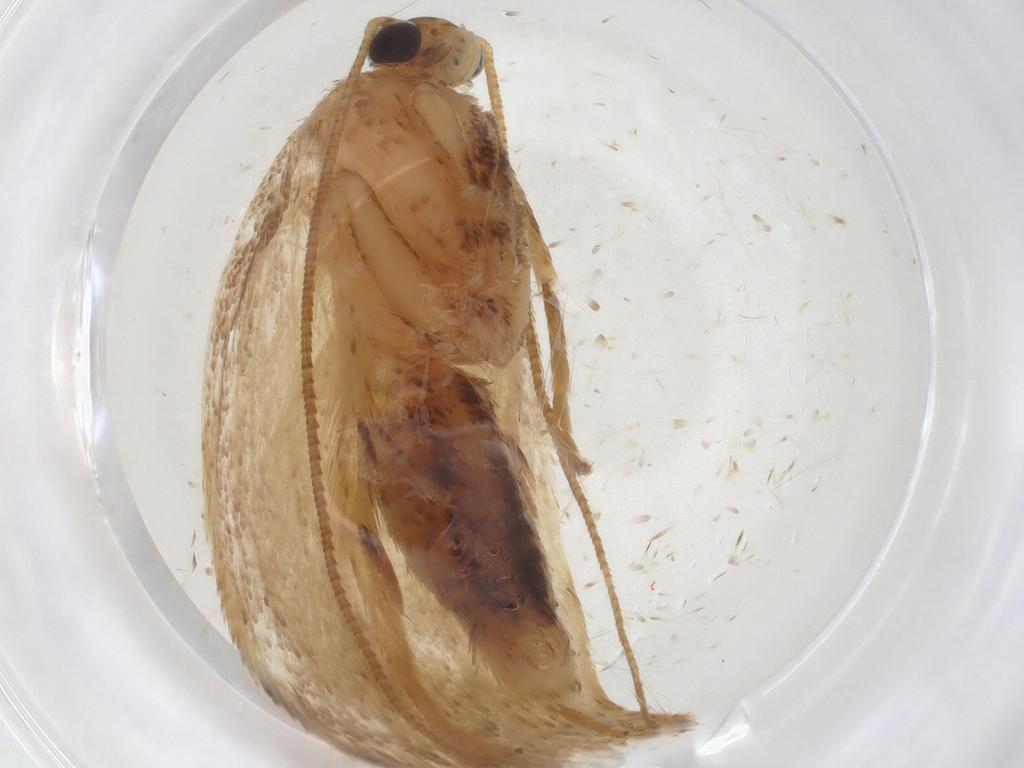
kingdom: Animalia
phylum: Arthropoda
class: Insecta
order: Lepidoptera
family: Depressariidae
